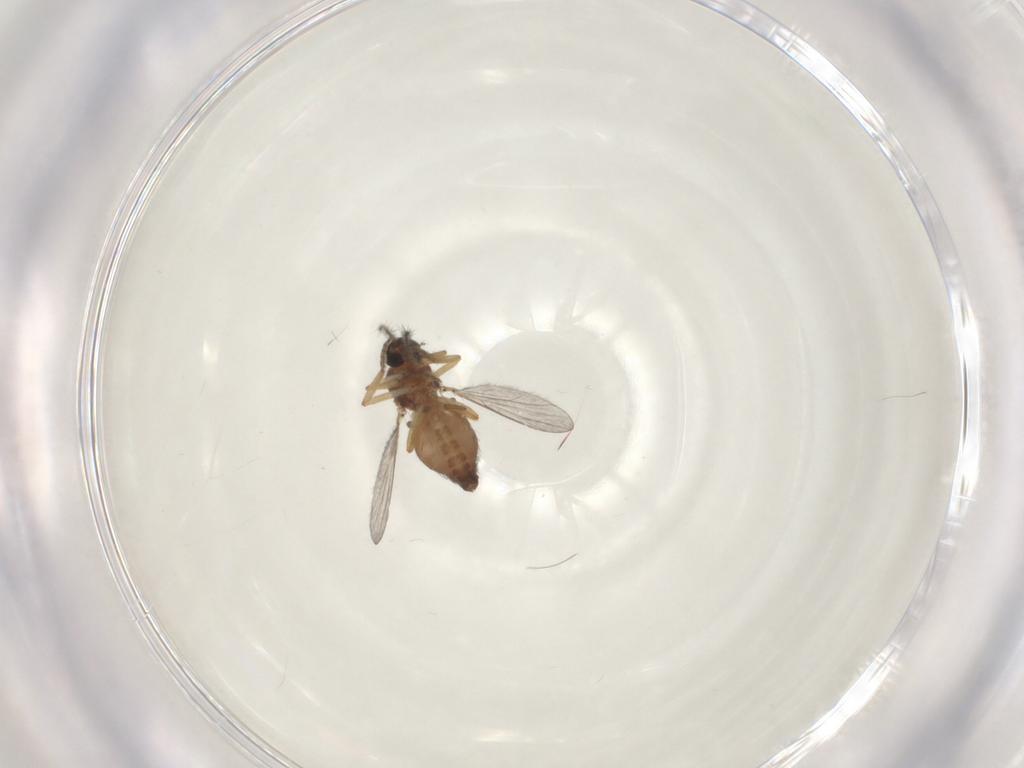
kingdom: Animalia
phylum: Arthropoda
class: Insecta
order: Diptera
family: Ceratopogonidae
